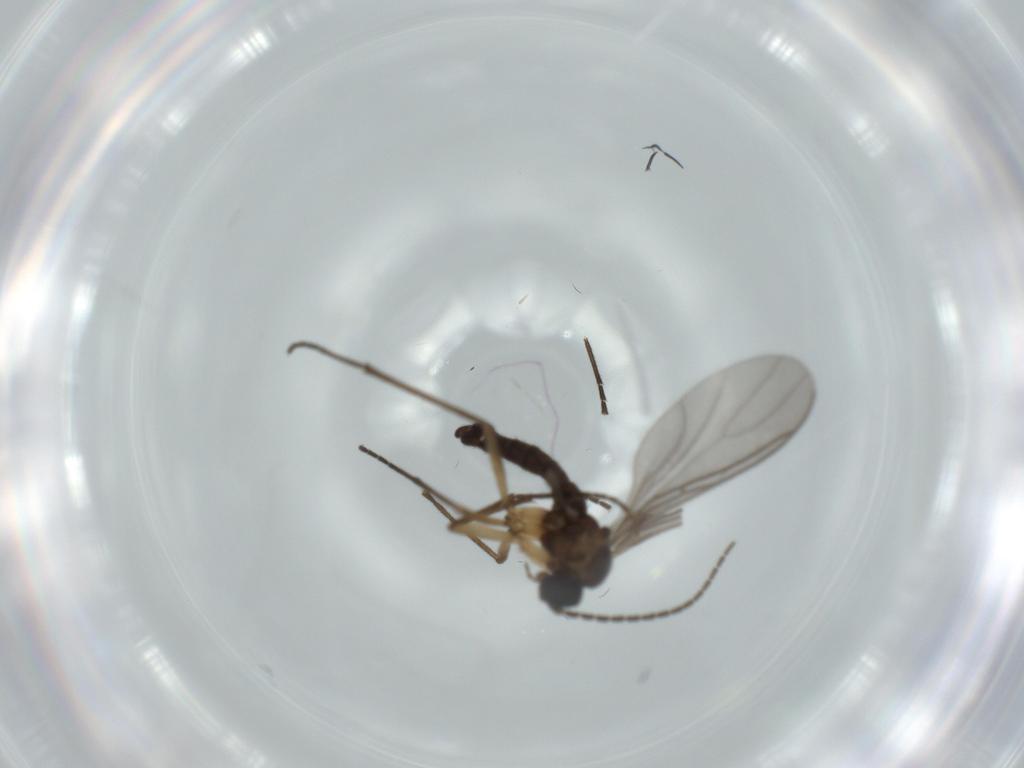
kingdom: Animalia
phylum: Arthropoda
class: Insecta
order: Diptera
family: Sciaridae
